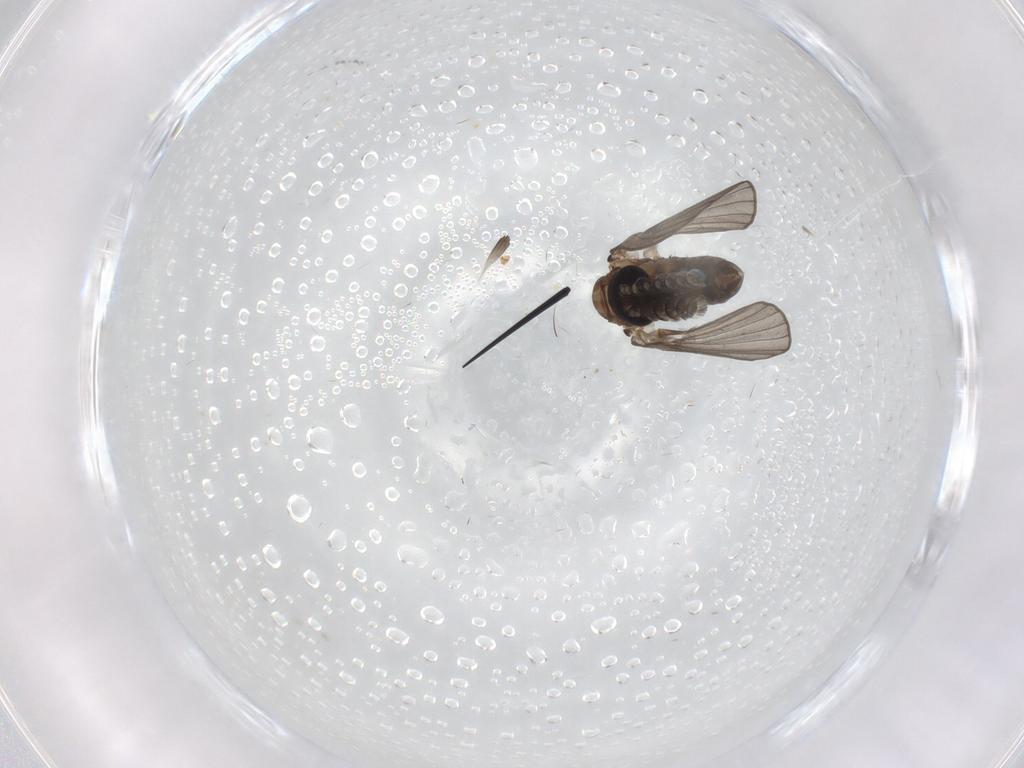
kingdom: Animalia
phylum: Arthropoda
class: Insecta
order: Diptera
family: Psychodidae
